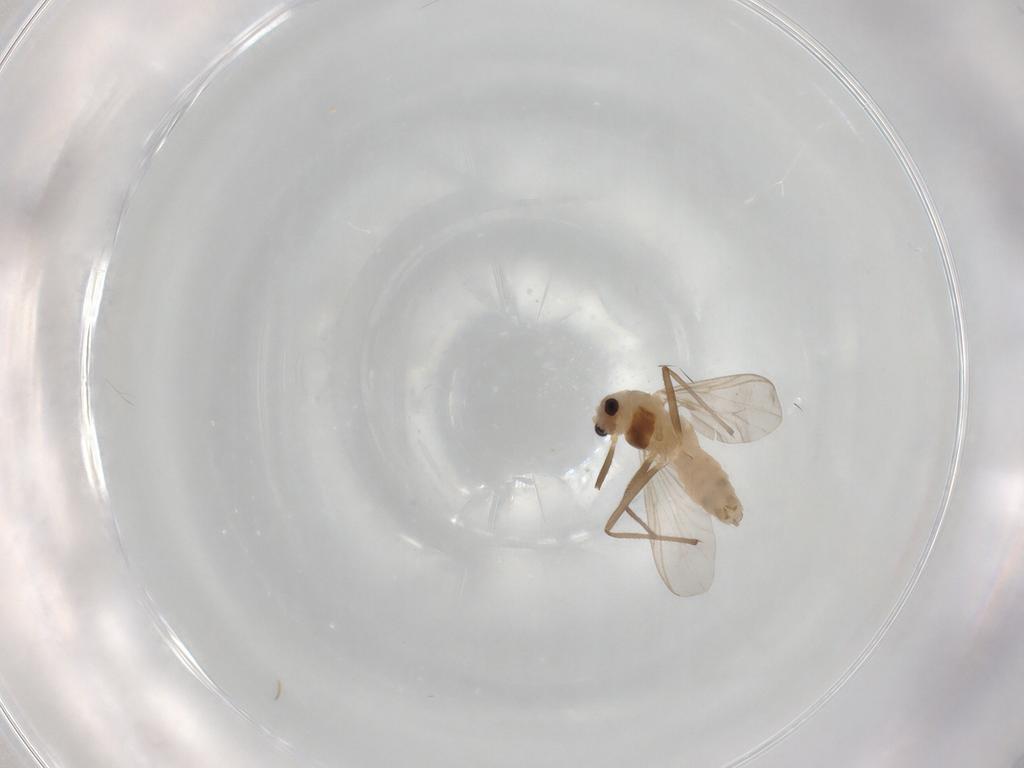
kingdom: Animalia
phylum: Arthropoda
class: Insecta
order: Diptera
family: Chironomidae
